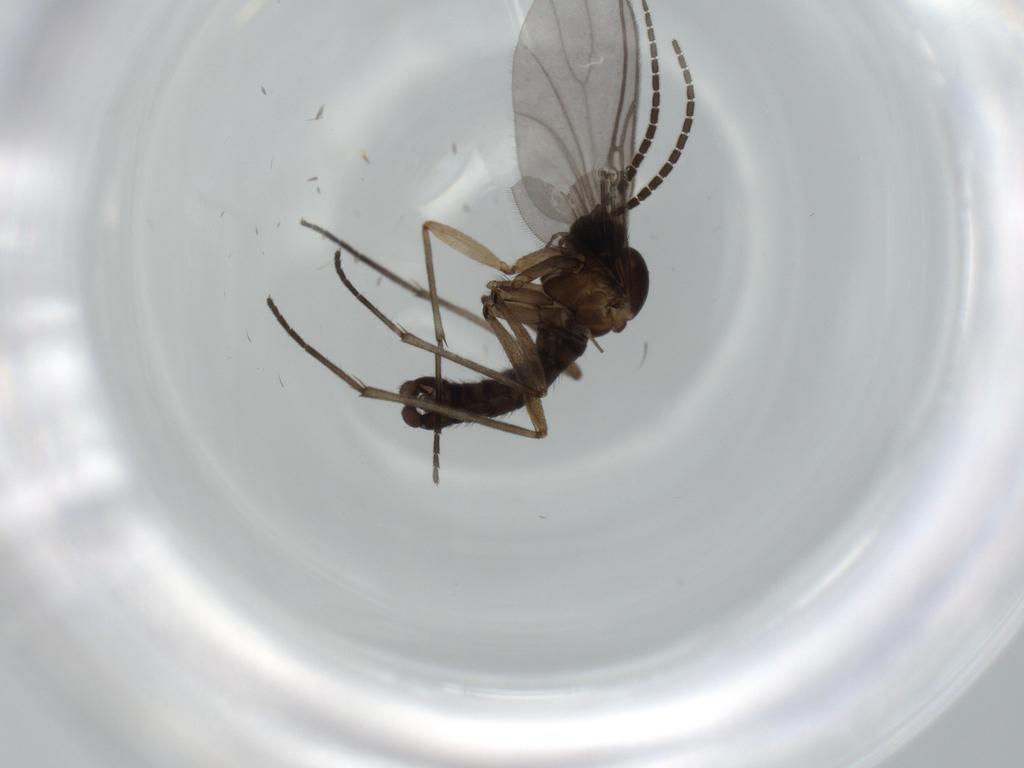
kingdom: Animalia
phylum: Arthropoda
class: Insecta
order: Diptera
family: Sciaridae
